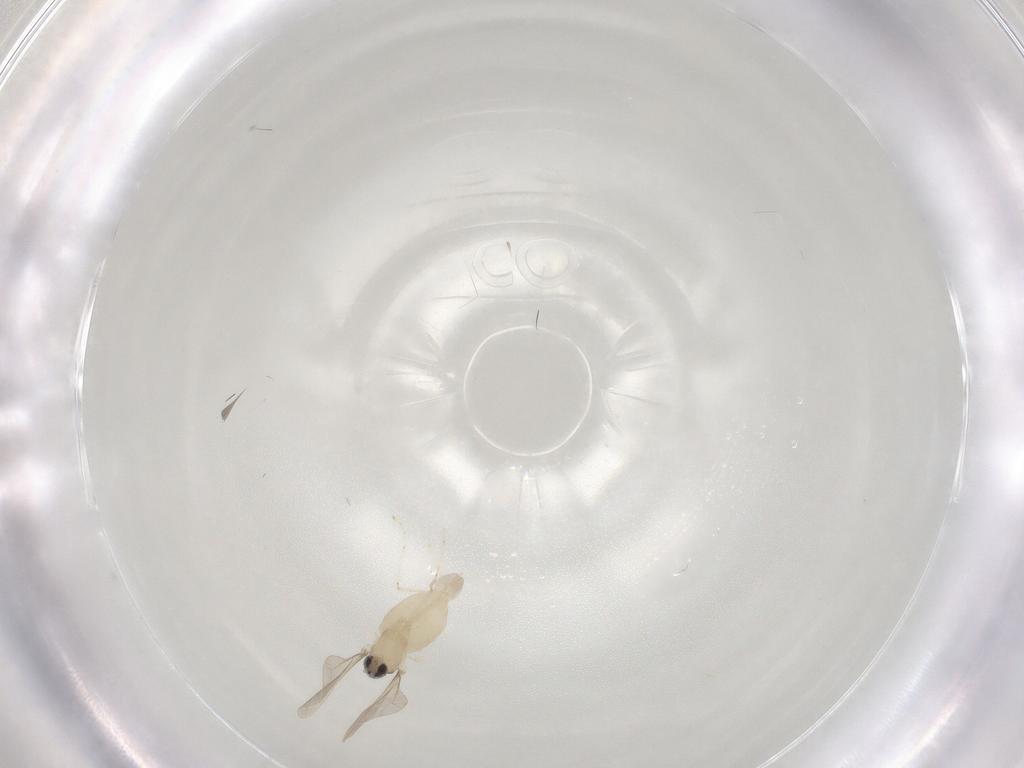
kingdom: Animalia
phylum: Arthropoda
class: Insecta
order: Diptera
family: Cecidomyiidae
